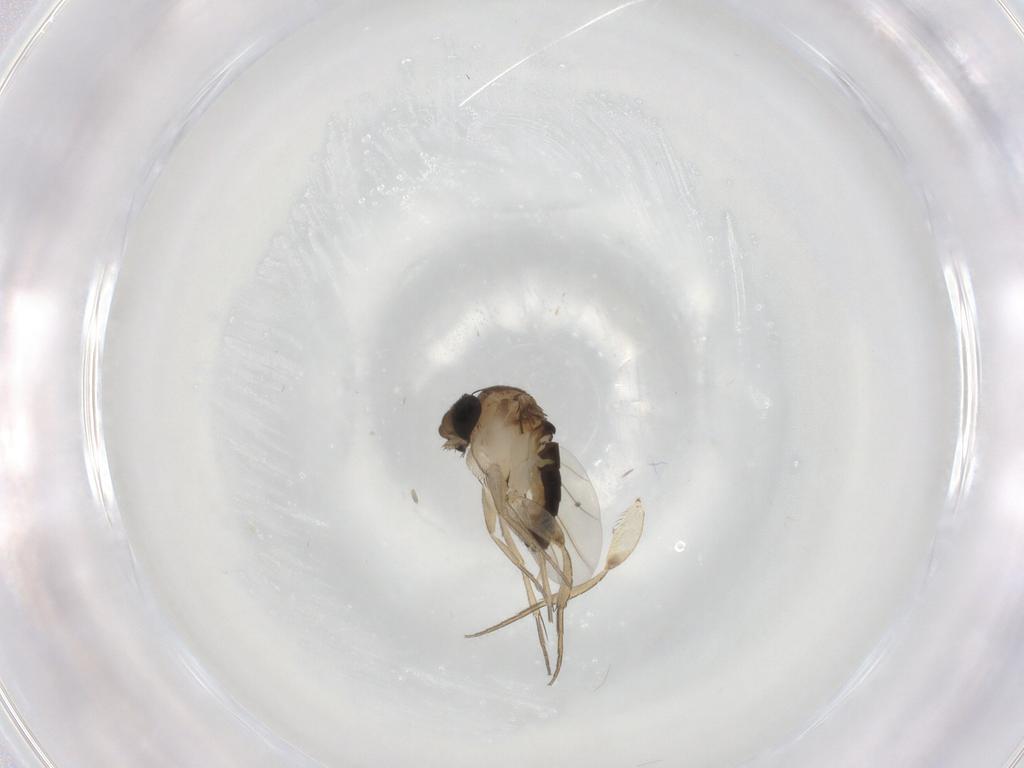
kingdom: Animalia
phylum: Arthropoda
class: Insecta
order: Diptera
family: Phoridae
